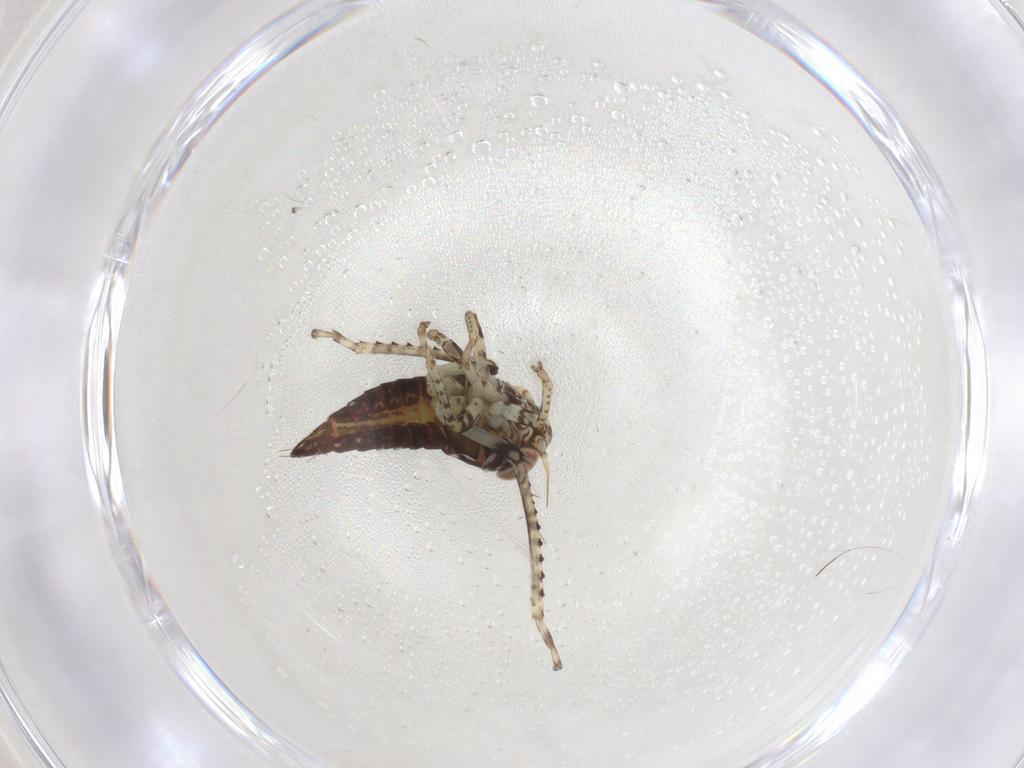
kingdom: Animalia
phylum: Arthropoda
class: Insecta
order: Hemiptera
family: Cicadellidae
